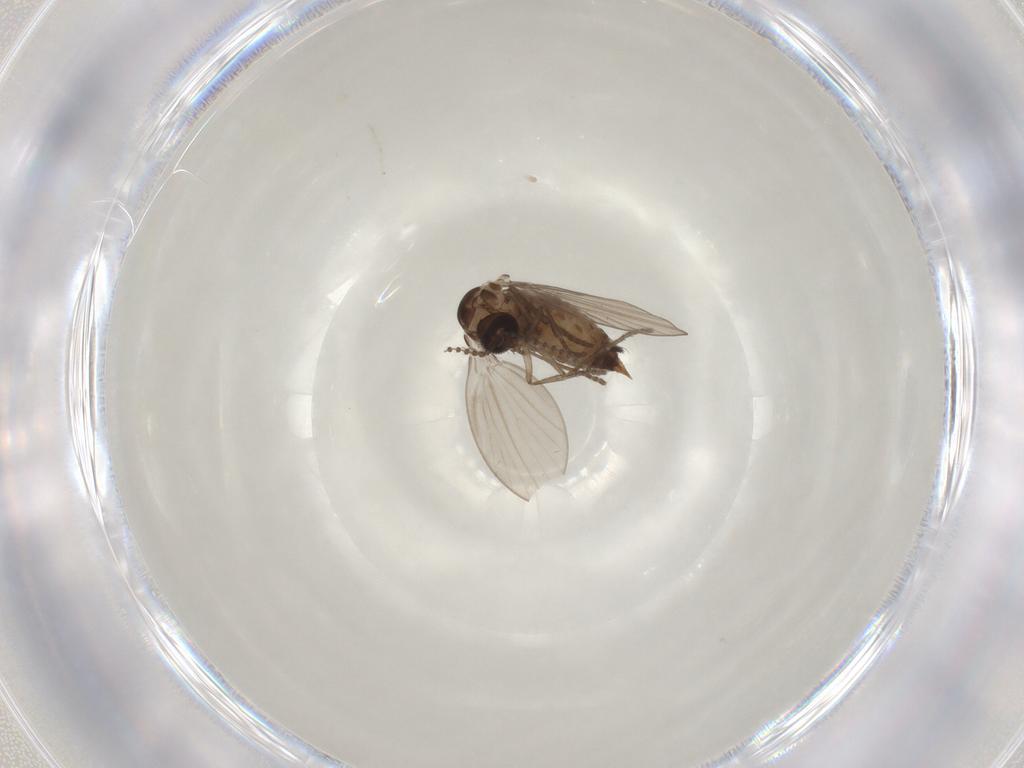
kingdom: Animalia
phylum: Arthropoda
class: Insecta
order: Diptera
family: Psychodidae
